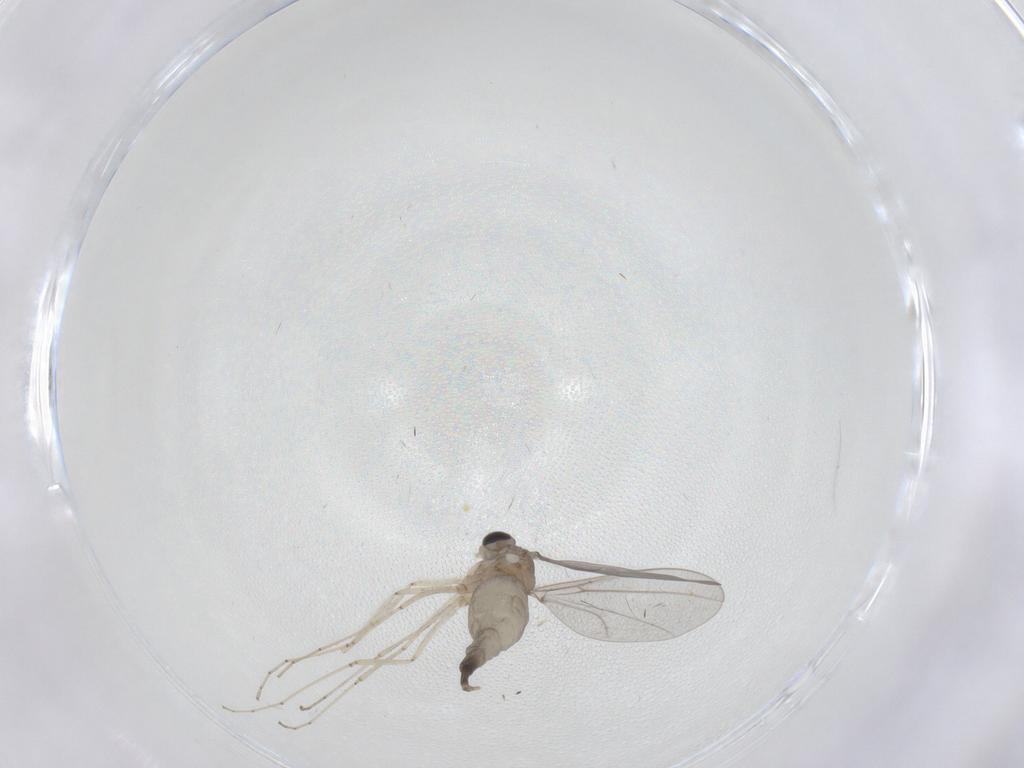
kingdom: Animalia
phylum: Arthropoda
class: Insecta
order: Diptera
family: Cecidomyiidae
